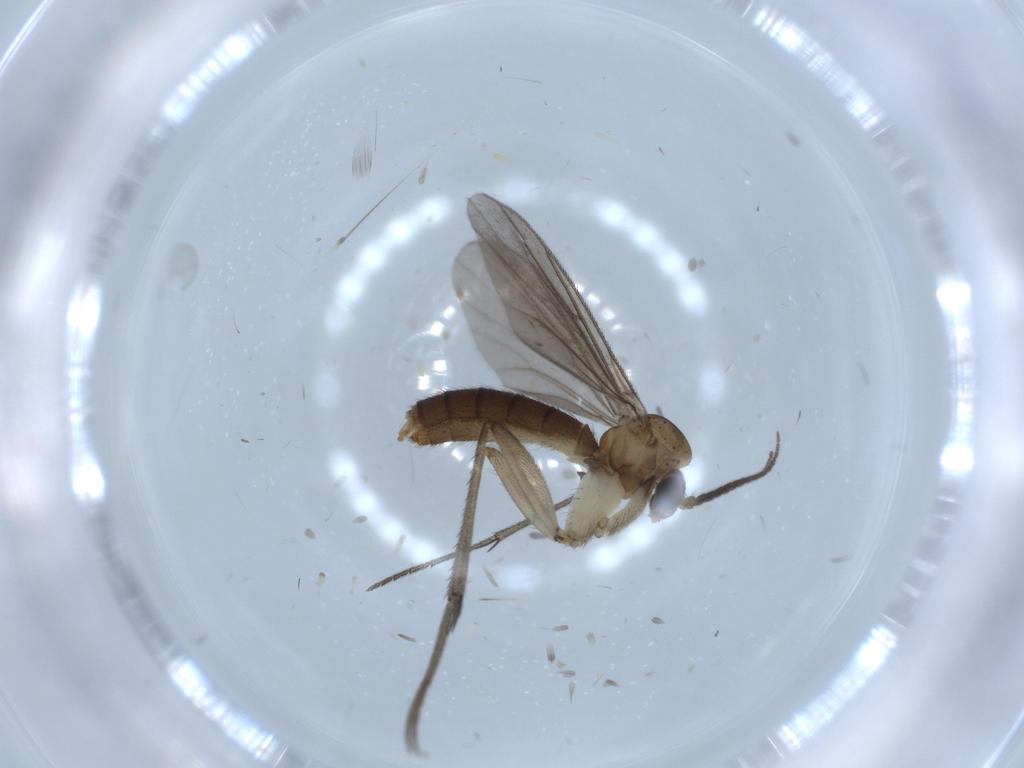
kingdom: Animalia
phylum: Arthropoda
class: Insecta
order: Diptera
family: Mycetophilidae
